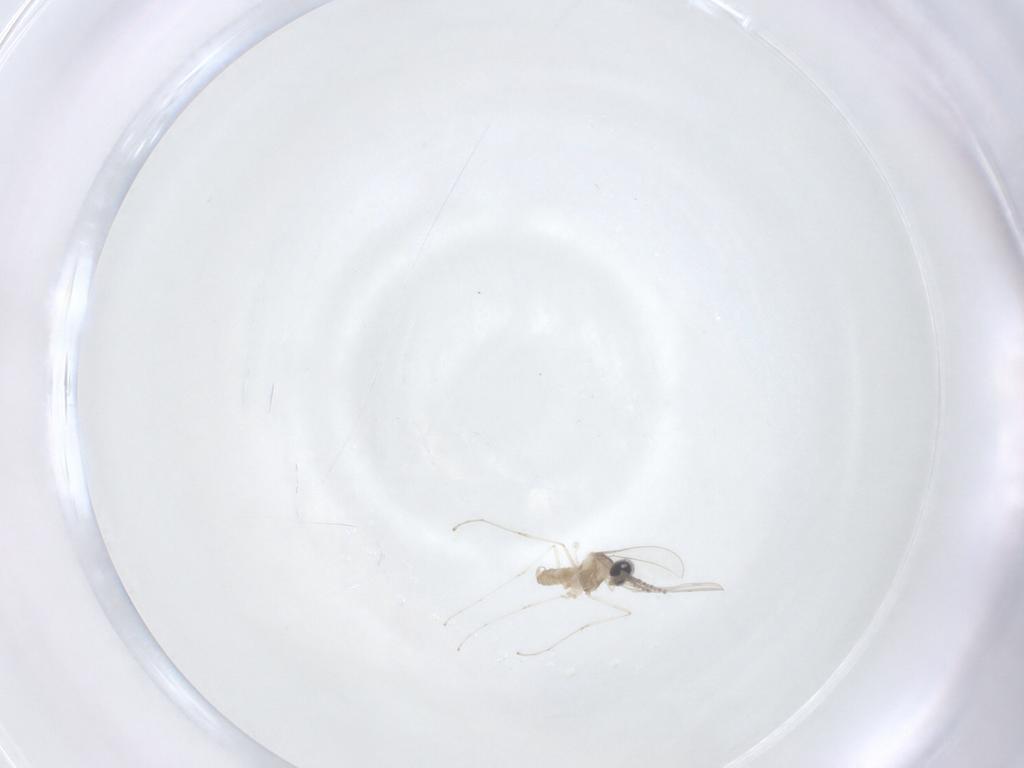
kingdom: Animalia
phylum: Arthropoda
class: Insecta
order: Diptera
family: Cecidomyiidae
